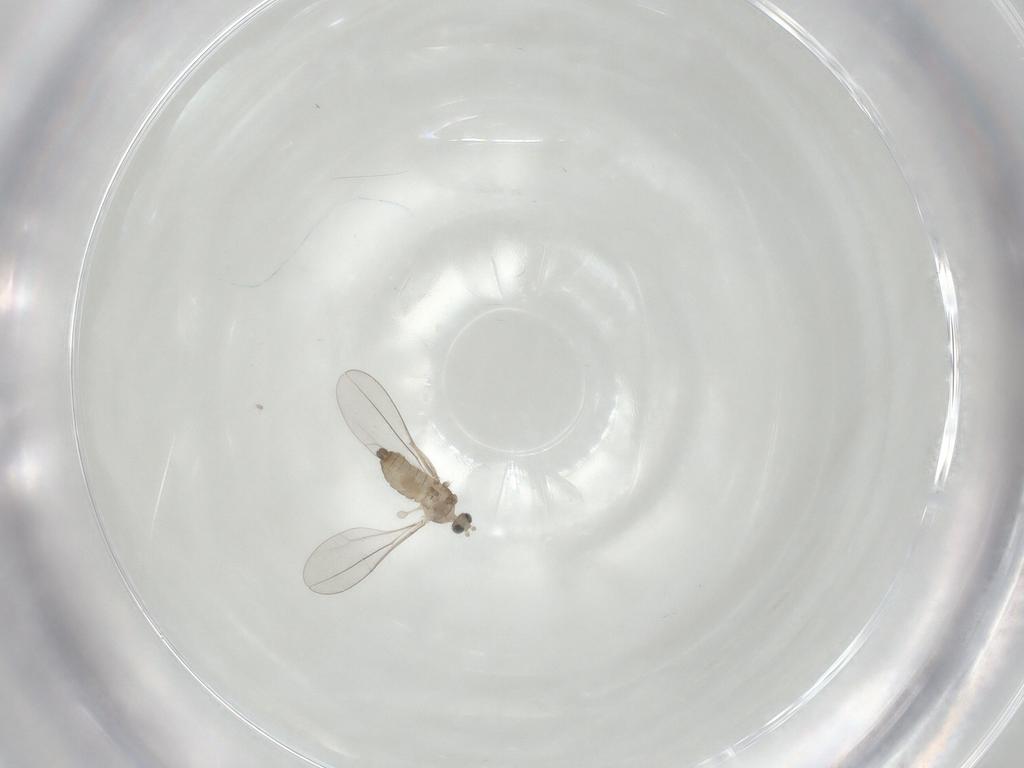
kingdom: Animalia
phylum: Arthropoda
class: Insecta
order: Diptera
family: Cecidomyiidae
